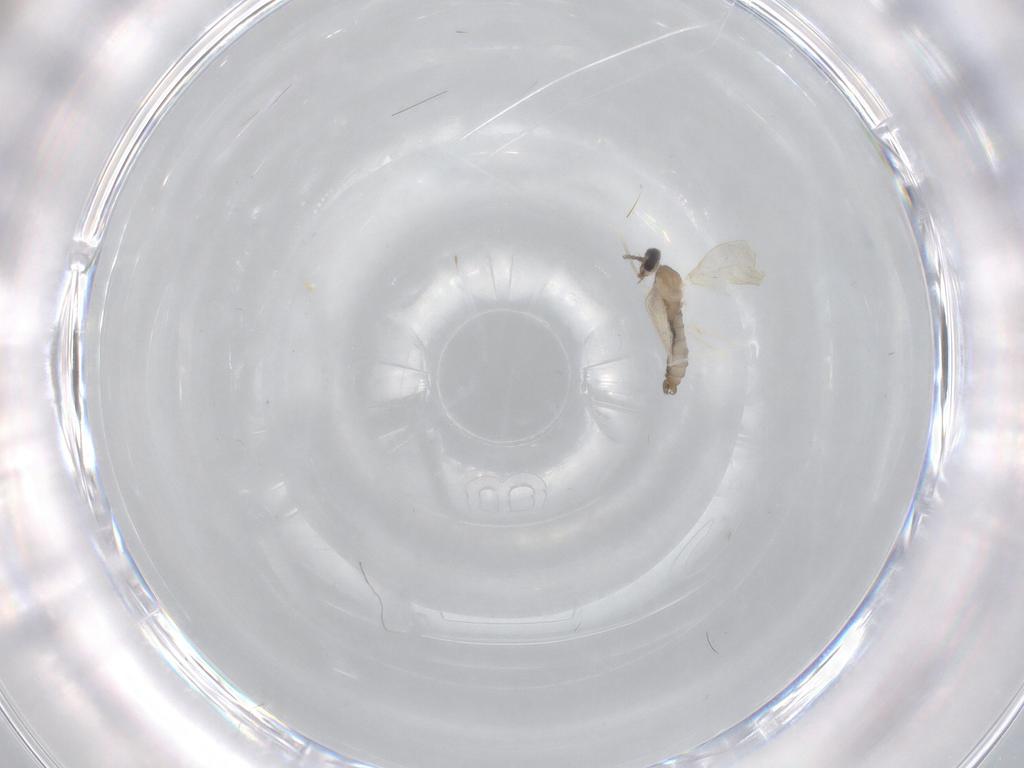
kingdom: Animalia
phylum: Arthropoda
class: Insecta
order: Diptera
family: Cecidomyiidae
